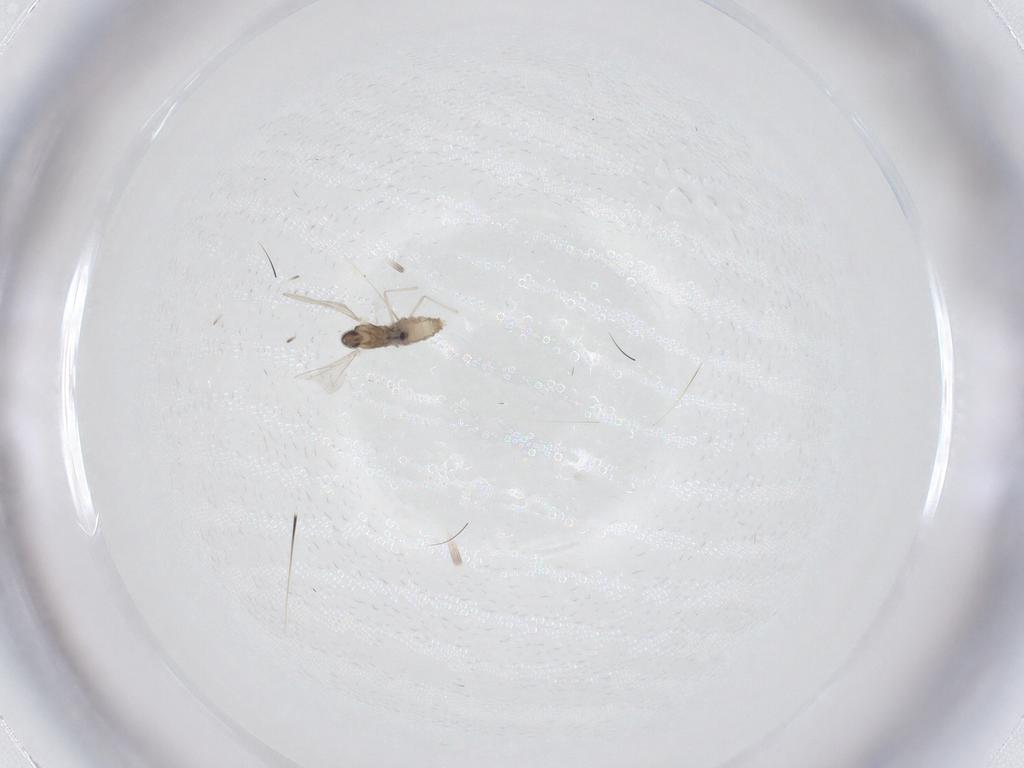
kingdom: Animalia
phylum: Arthropoda
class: Insecta
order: Diptera
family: Cecidomyiidae
